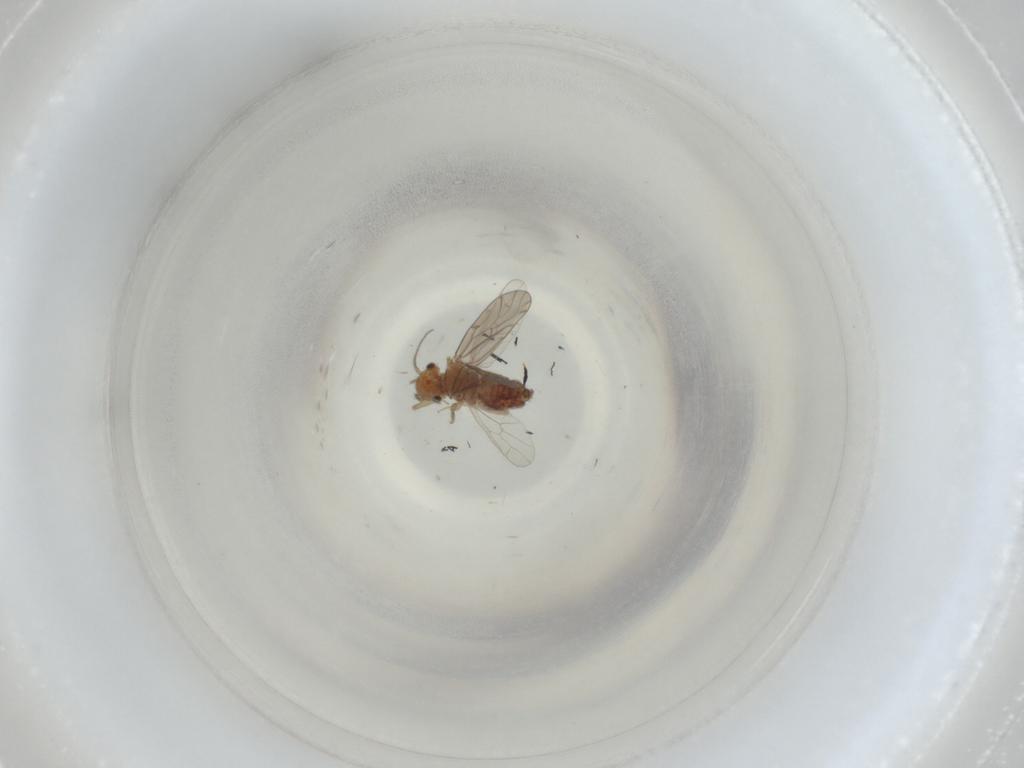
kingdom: Animalia
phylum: Arthropoda
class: Insecta
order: Psocodea
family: Ectopsocidae
